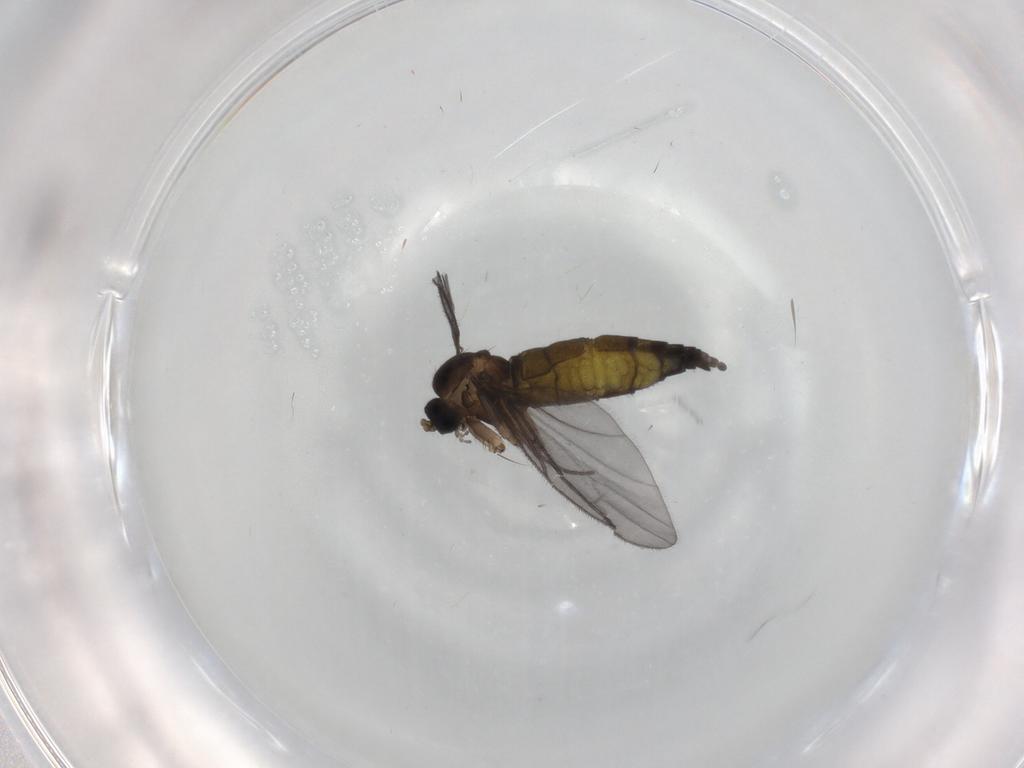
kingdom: Animalia
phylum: Arthropoda
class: Insecta
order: Diptera
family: Sciaridae
